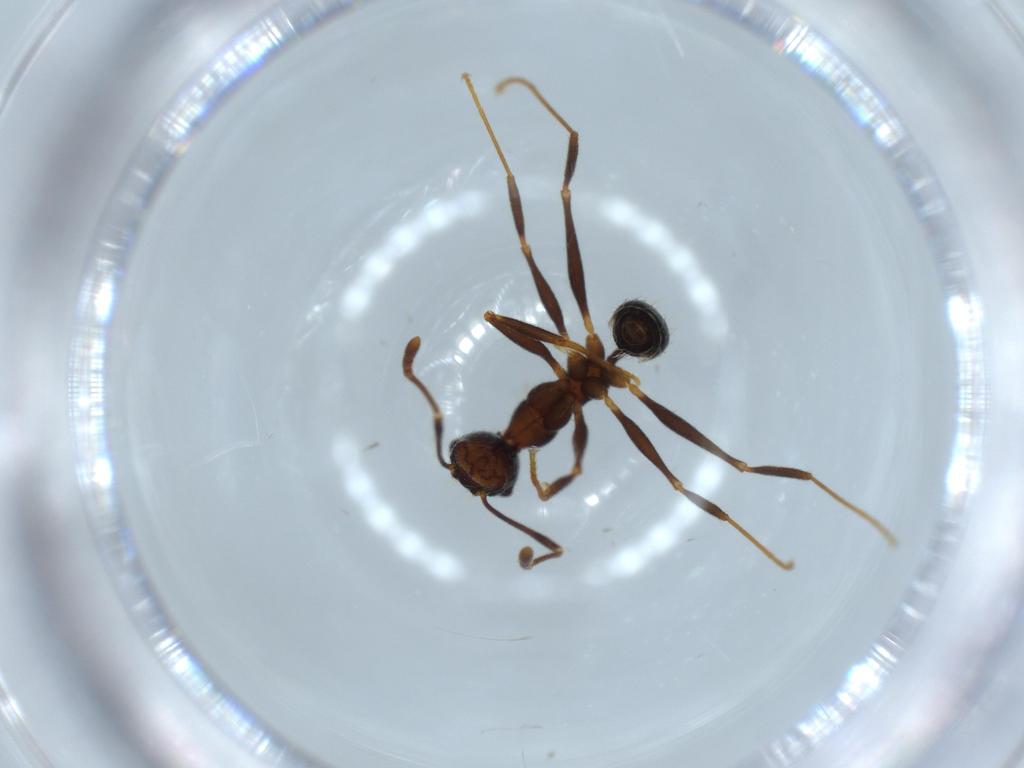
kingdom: Animalia
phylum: Arthropoda
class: Insecta
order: Hymenoptera
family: Formicidae
